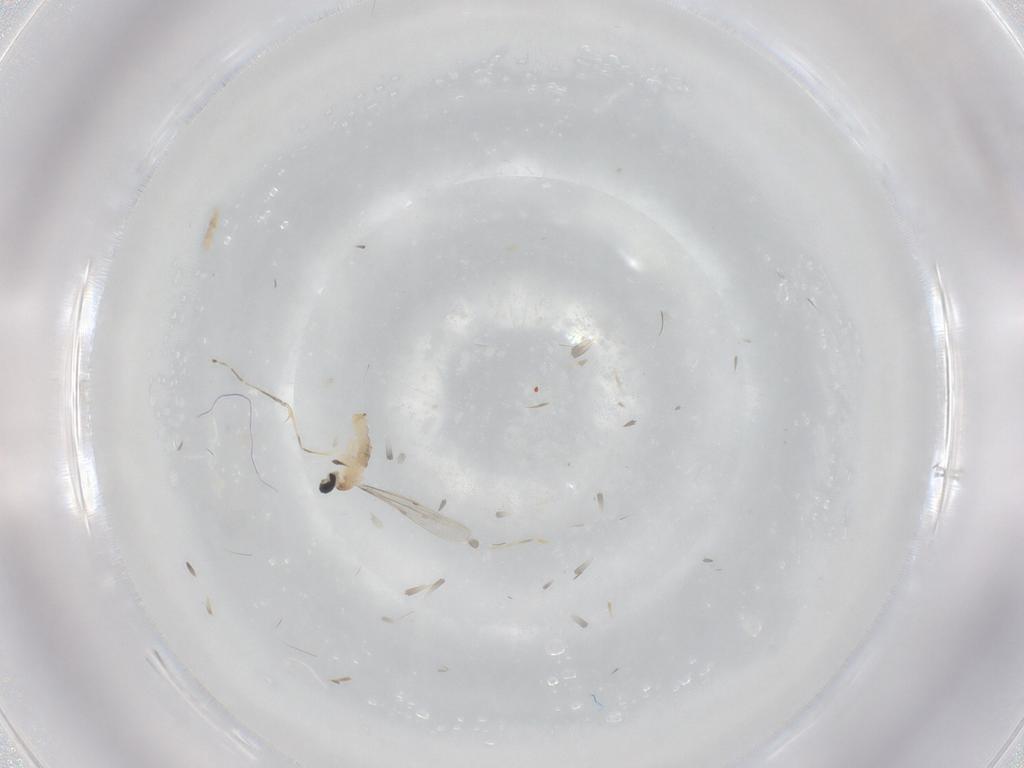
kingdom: Animalia
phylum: Arthropoda
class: Insecta
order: Diptera
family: Cecidomyiidae
